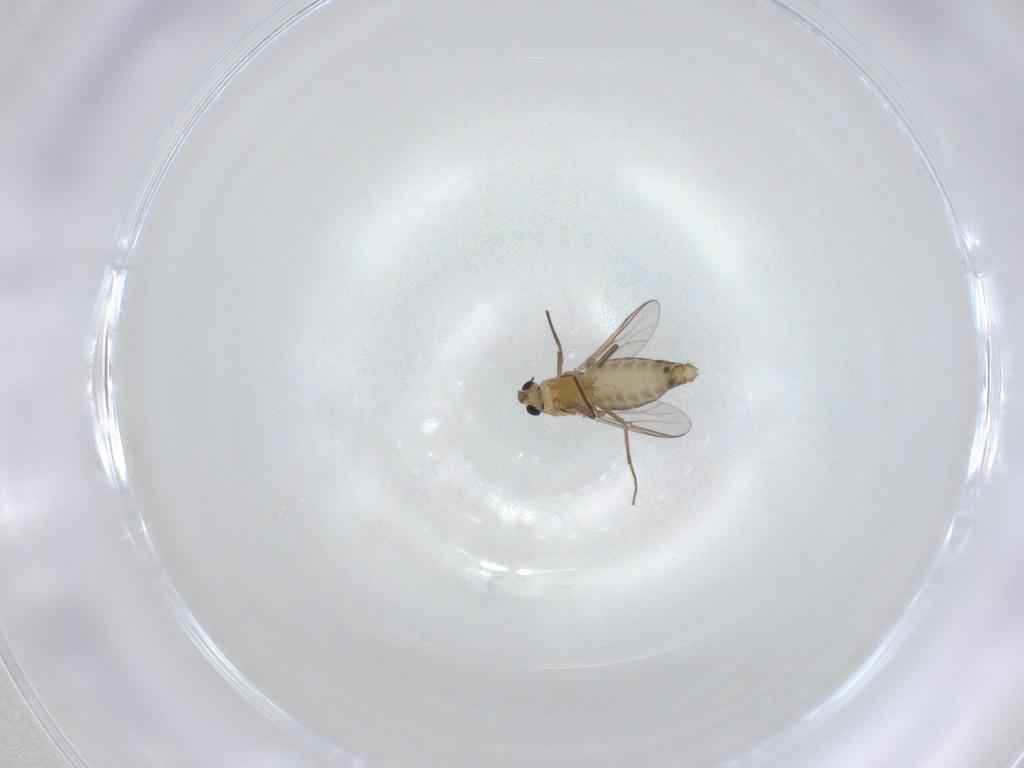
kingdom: Animalia
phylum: Arthropoda
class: Insecta
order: Diptera
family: Chironomidae
